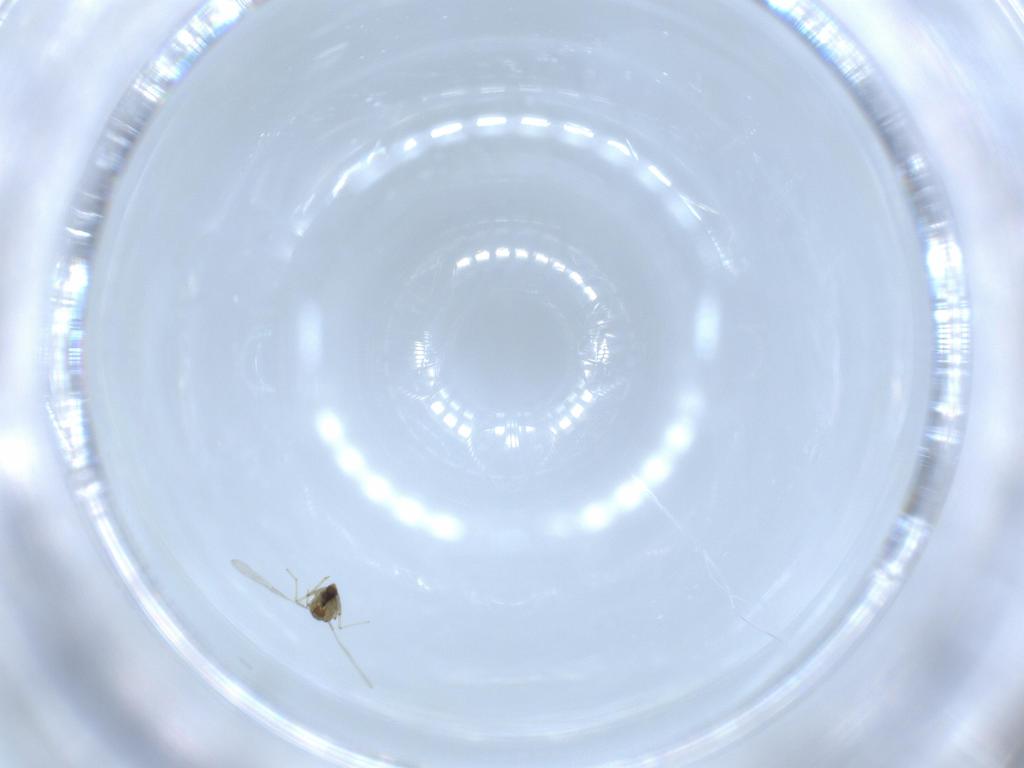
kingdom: Animalia
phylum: Arthropoda
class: Insecta
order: Diptera
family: Chironomidae
